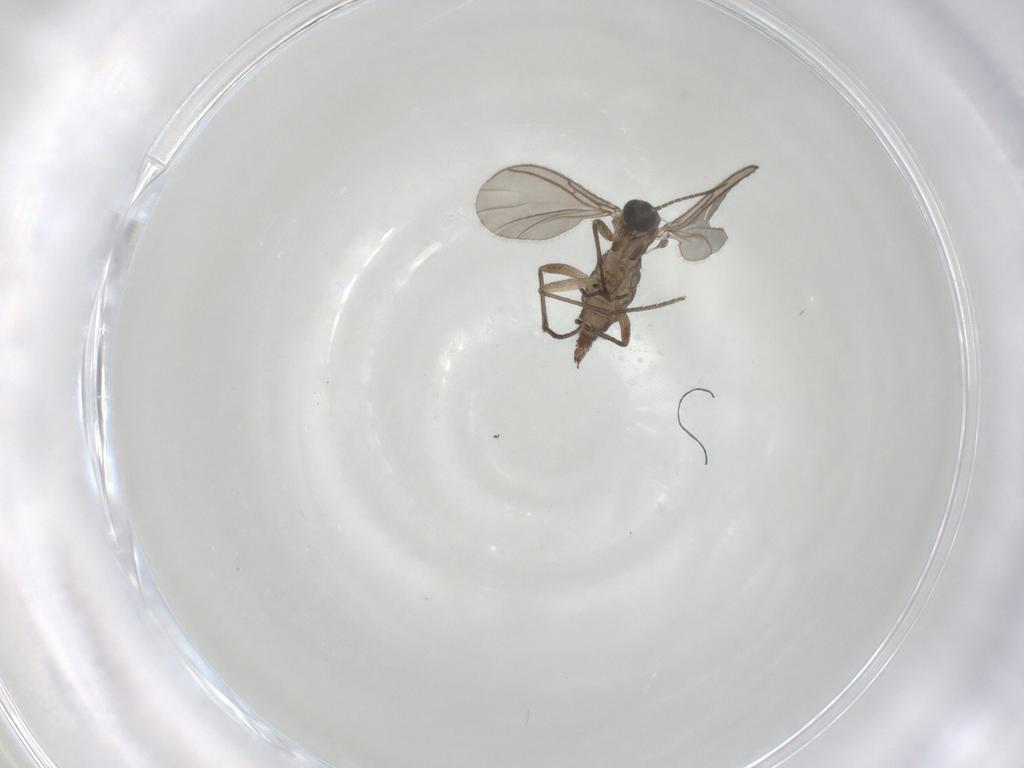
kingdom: Animalia
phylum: Arthropoda
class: Insecta
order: Diptera
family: Sciaridae
